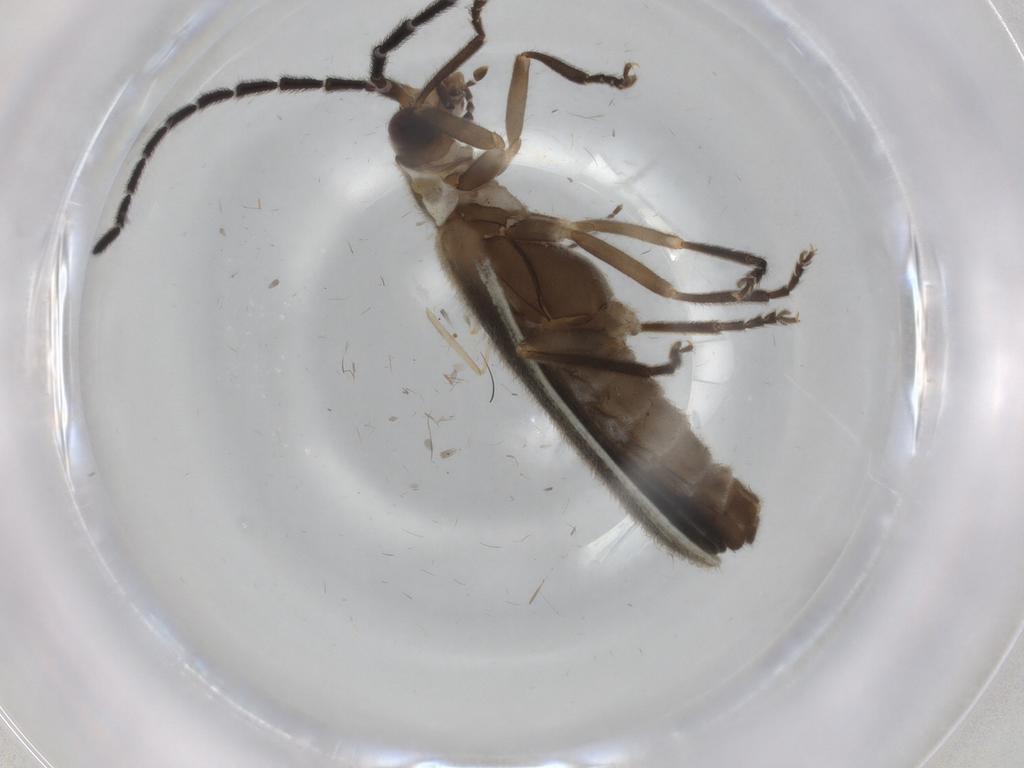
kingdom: Animalia
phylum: Arthropoda
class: Insecta
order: Coleoptera
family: Cantharidae
